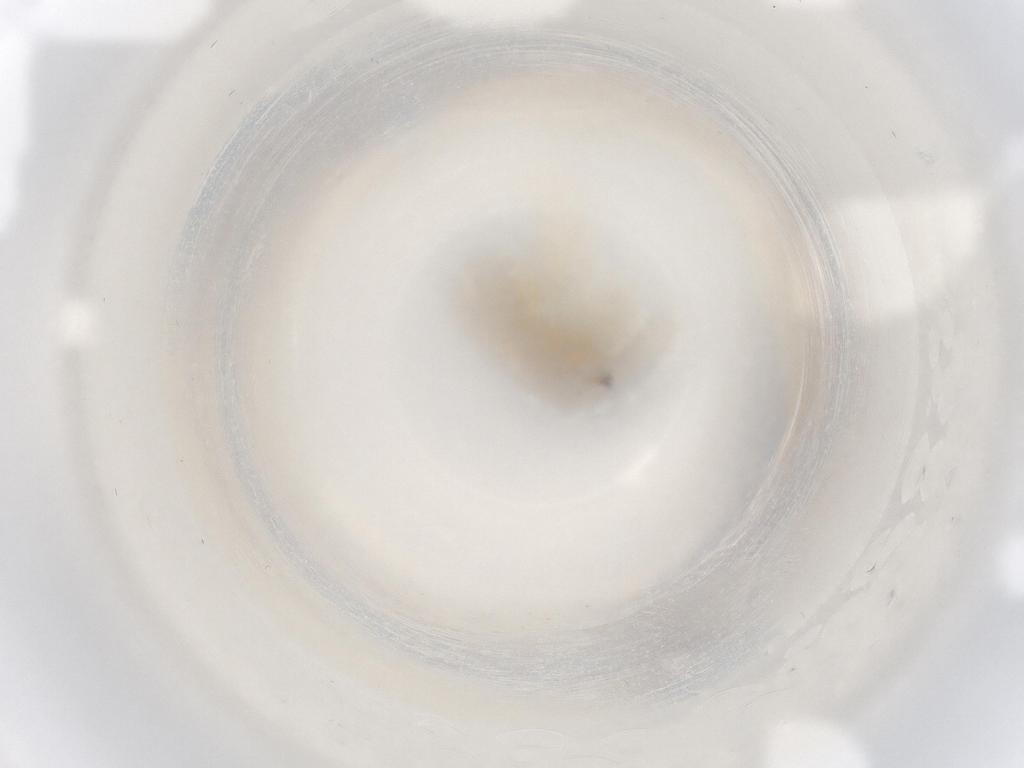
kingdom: Animalia
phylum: Arthropoda
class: Insecta
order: Diptera
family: Ceratopogonidae
